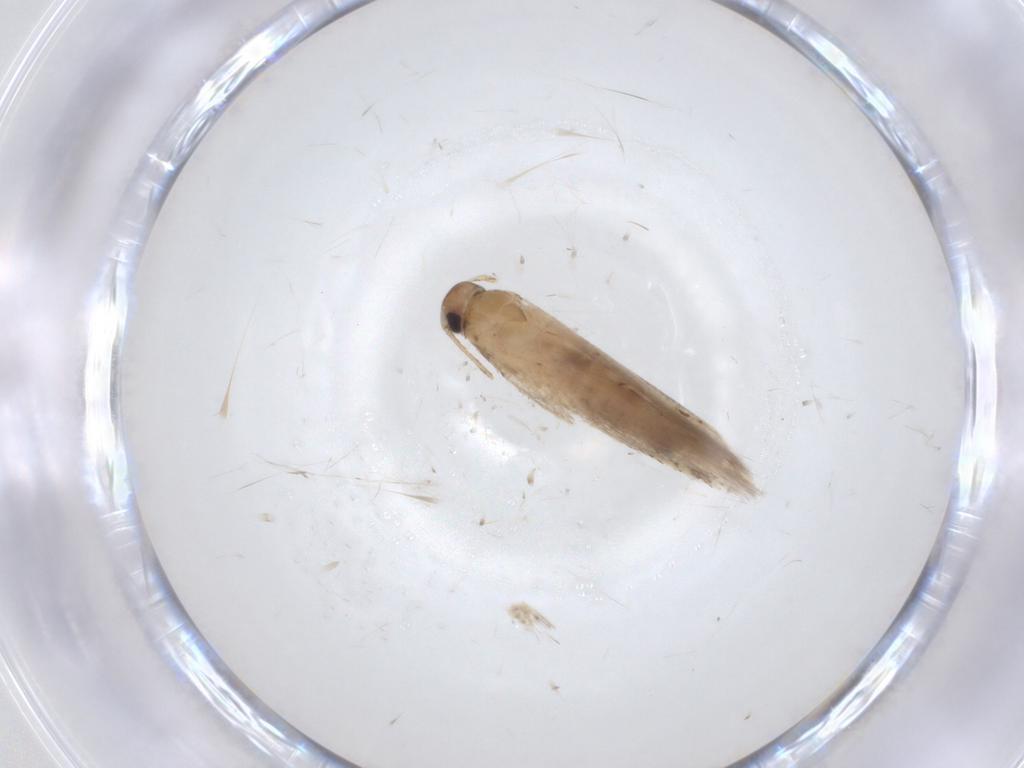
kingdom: Animalia
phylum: Arthropoda
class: Insecta
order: Lepidoptera
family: Gelechiidae
